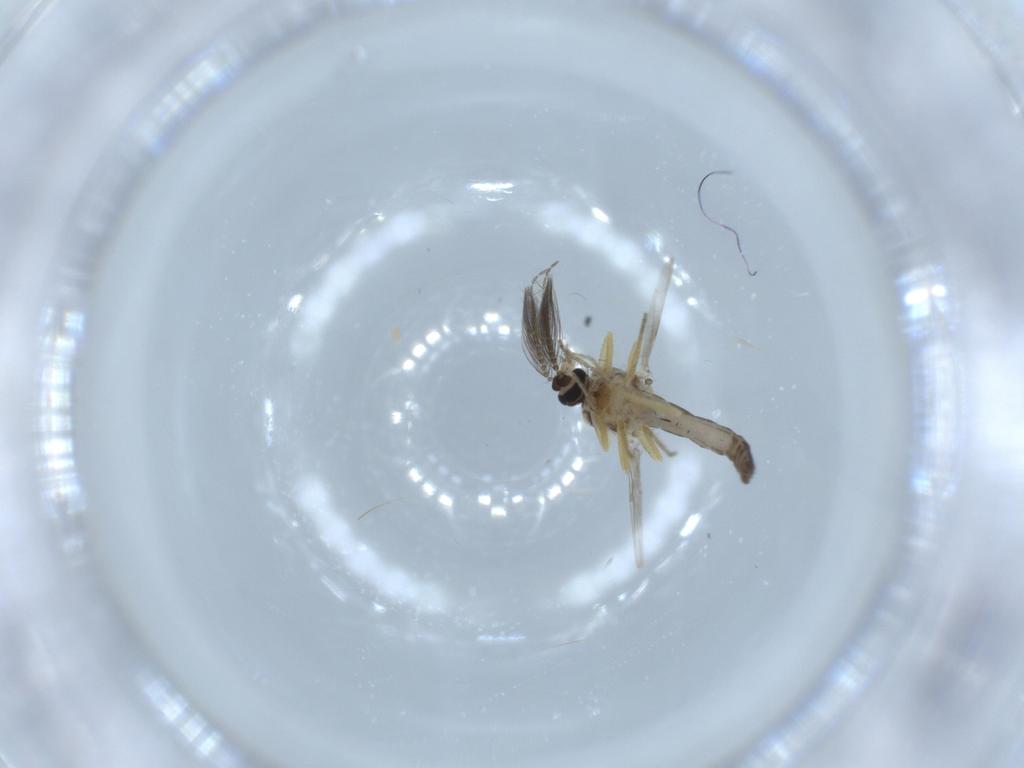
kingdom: Animalia
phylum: Arthropoda
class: Insecta
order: Diptera
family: Ceratopogonidae
